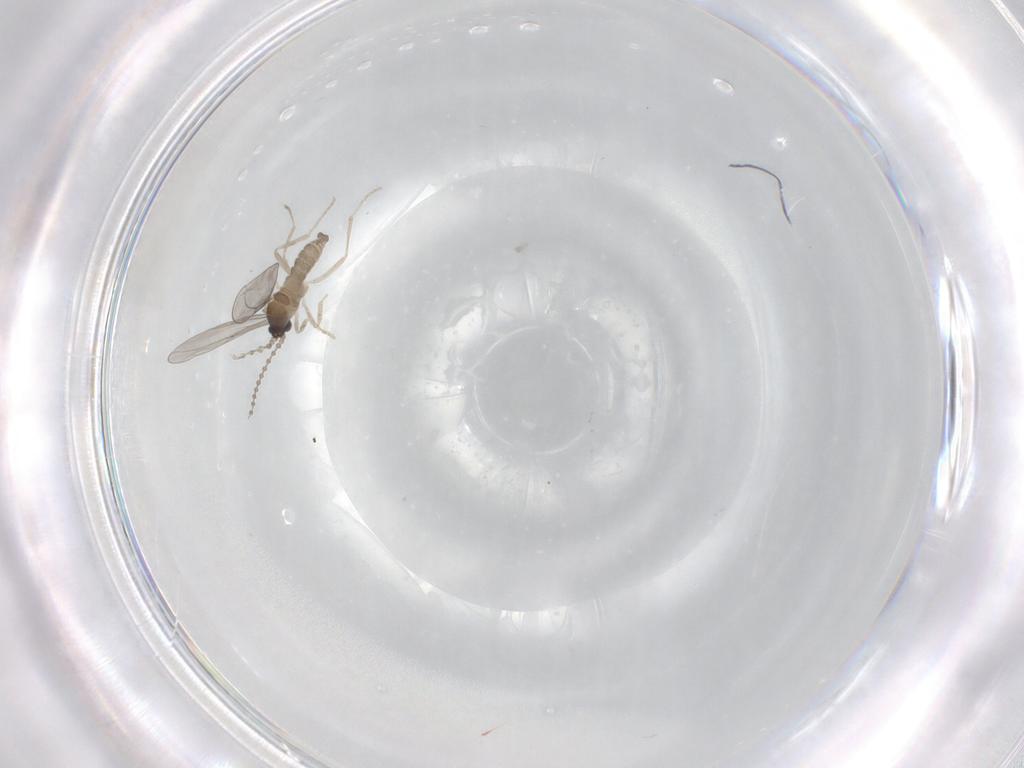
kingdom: Animalia
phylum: Arthropoda
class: Insecta
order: Diptera
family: Cecidomyiidae
